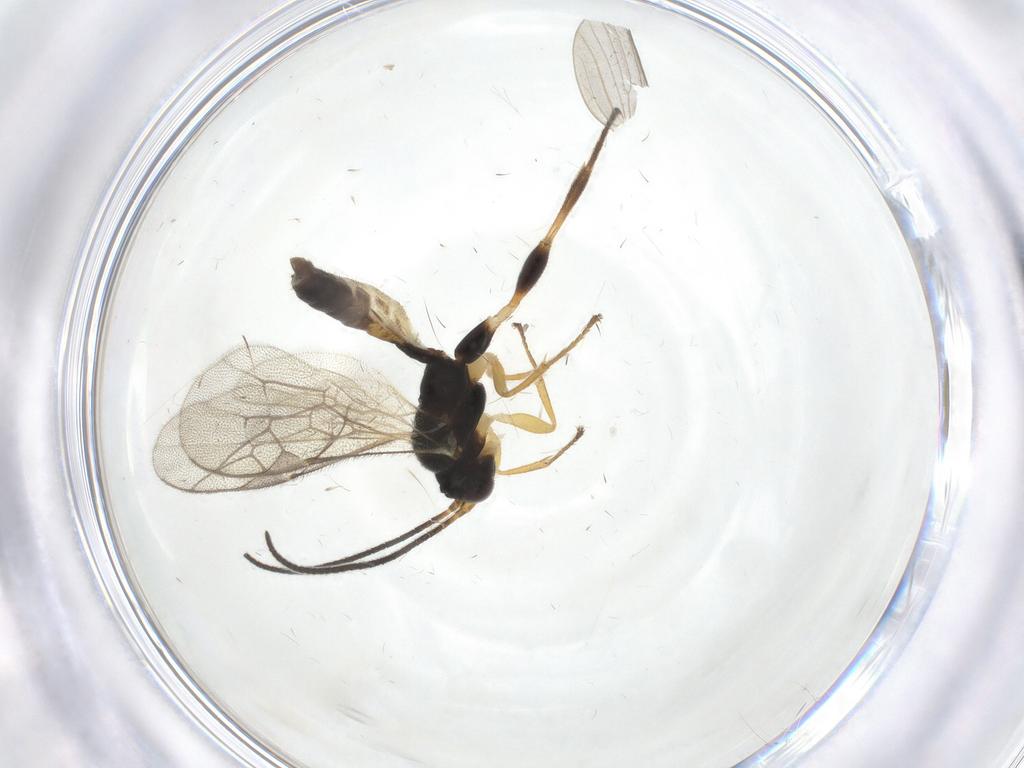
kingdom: Animalia
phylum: Arthropoda
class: Insecta
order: Hymenoptera
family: Ichneumonidae
